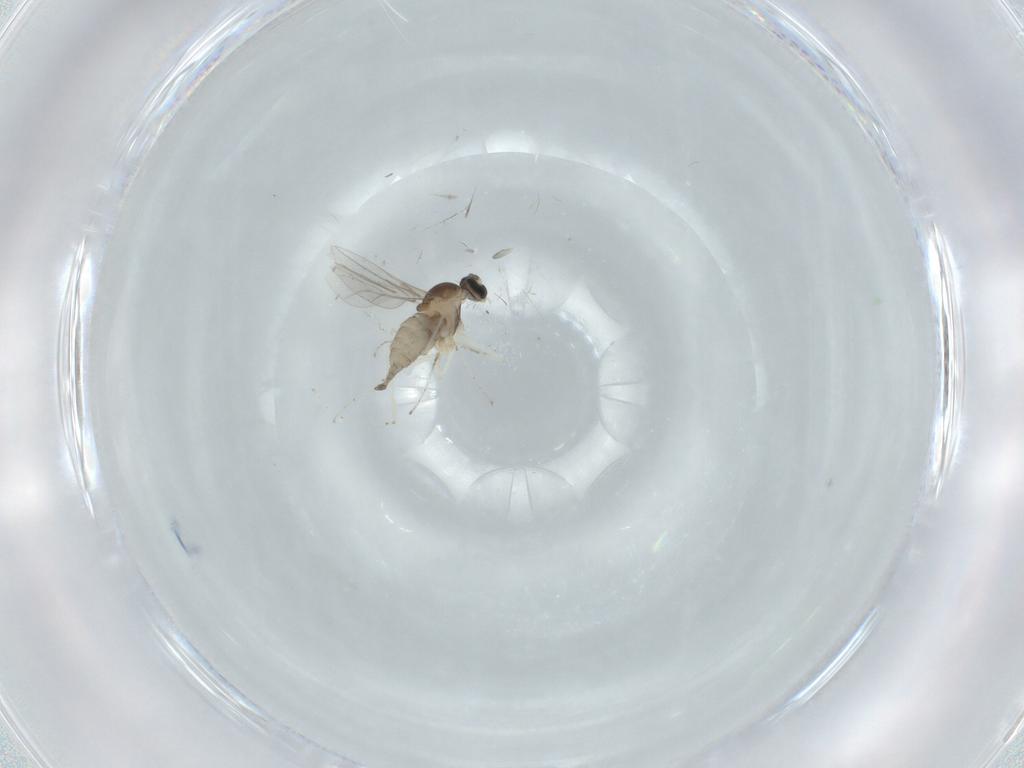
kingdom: Animalia
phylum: Arthropoda
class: Insecta
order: Diptera
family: Cecidomyiidae
